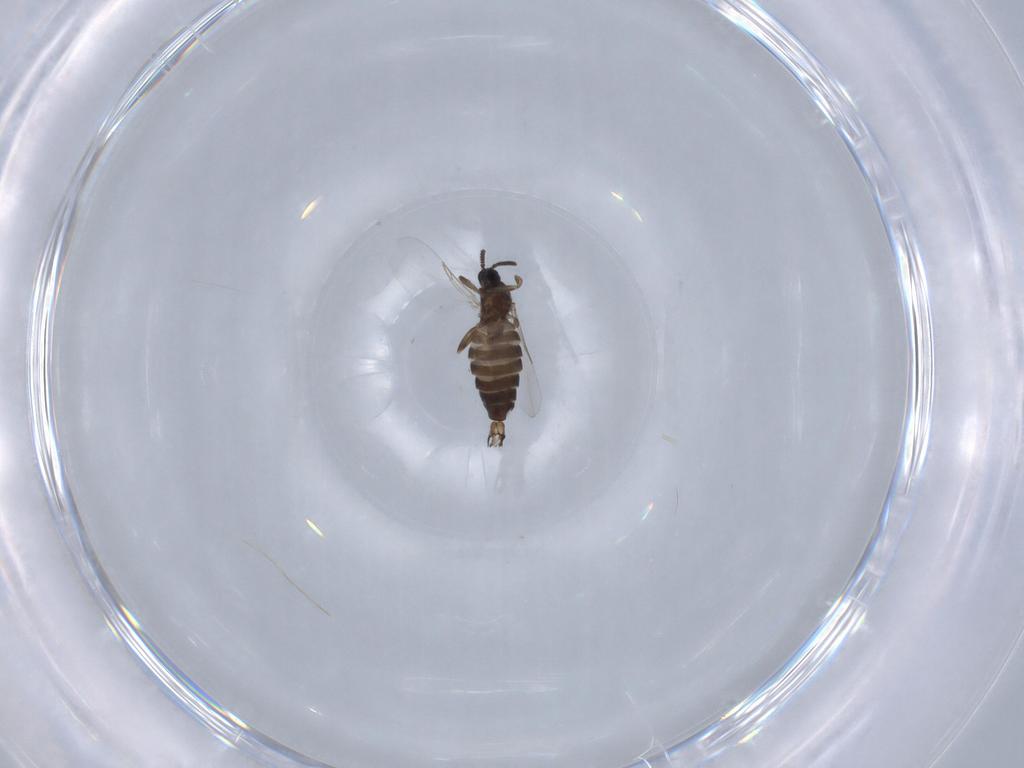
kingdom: Animalia
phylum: Arthropoda
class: Insecta
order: Diptera
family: Scatopsidae
